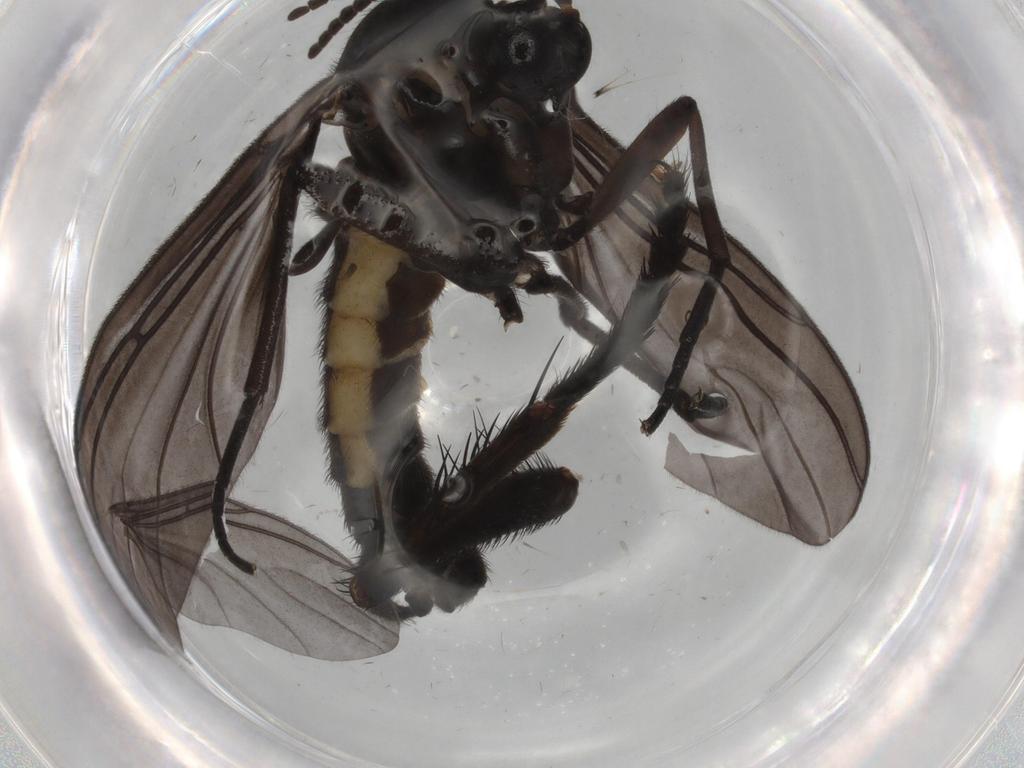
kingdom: Animalia
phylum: Arthropoda
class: Insecta
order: Diptera
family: Sciaridae
